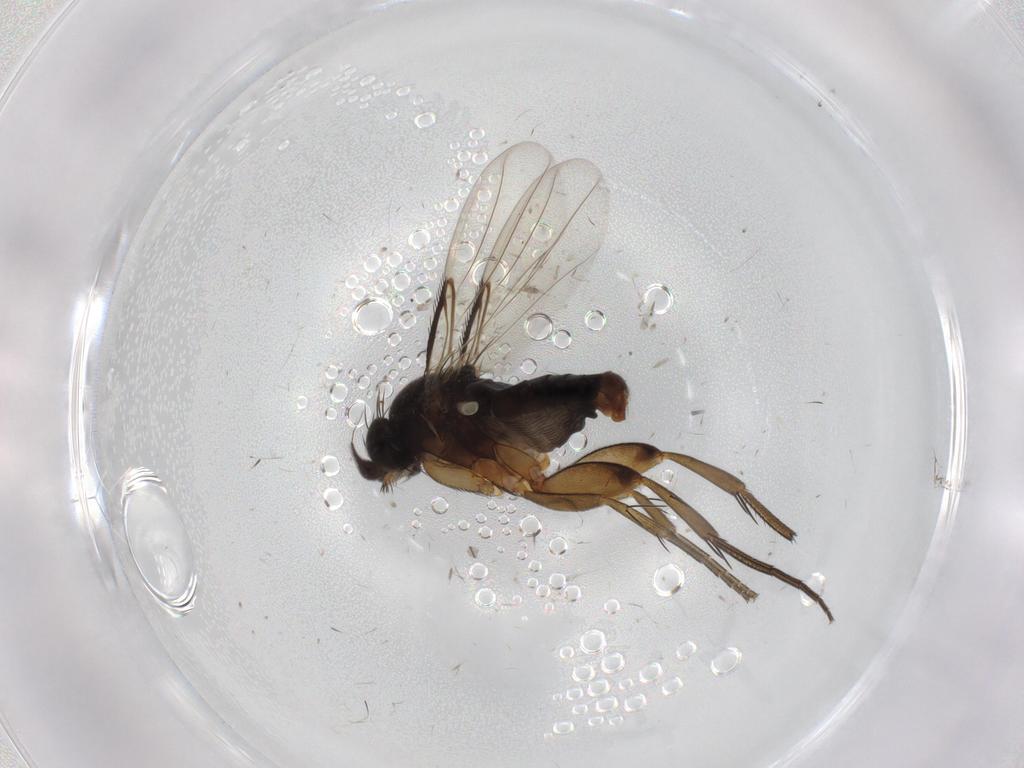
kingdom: Animalia
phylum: Arthropoda
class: Insecta
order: Diptera
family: Phoridae
